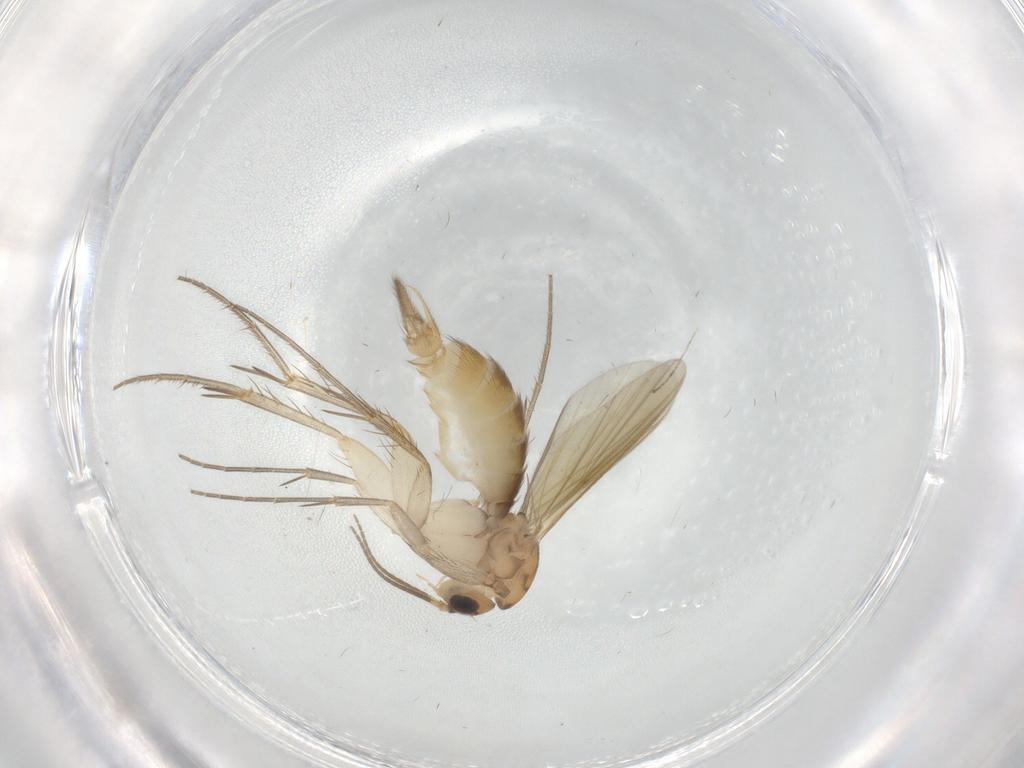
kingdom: Animalia
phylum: Arthropoda
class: Insecta
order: Diptera
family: Mycetophilidae
